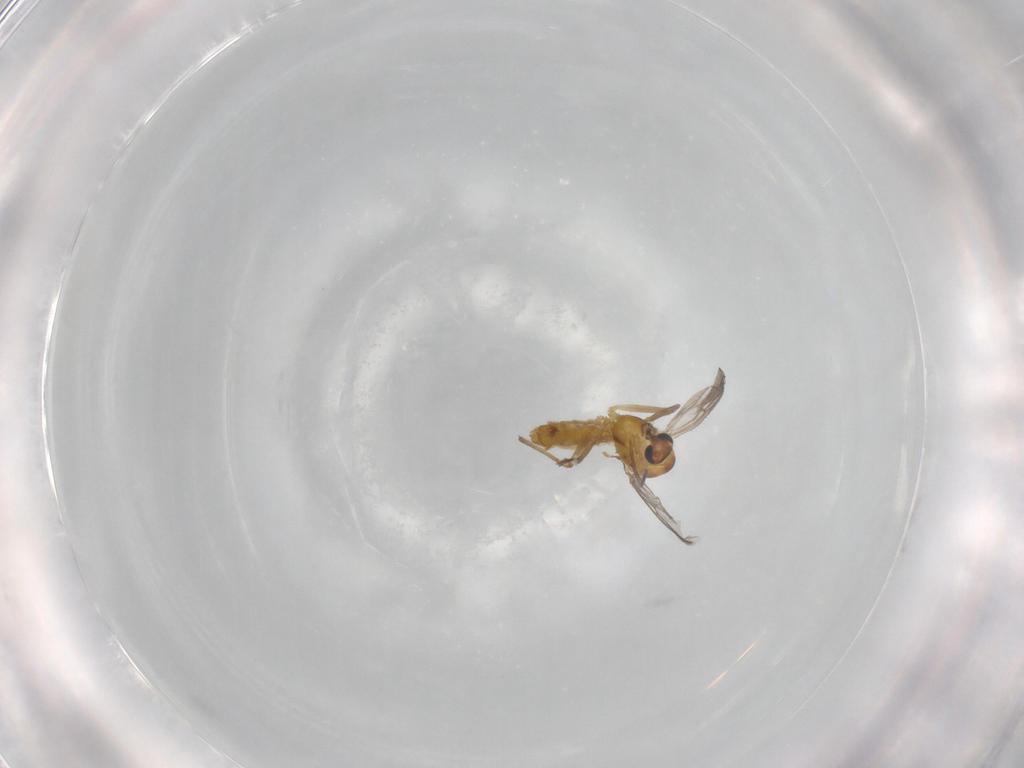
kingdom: Animalia
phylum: Arthropoda
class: Insecta
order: Diptera
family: Chironomidae
